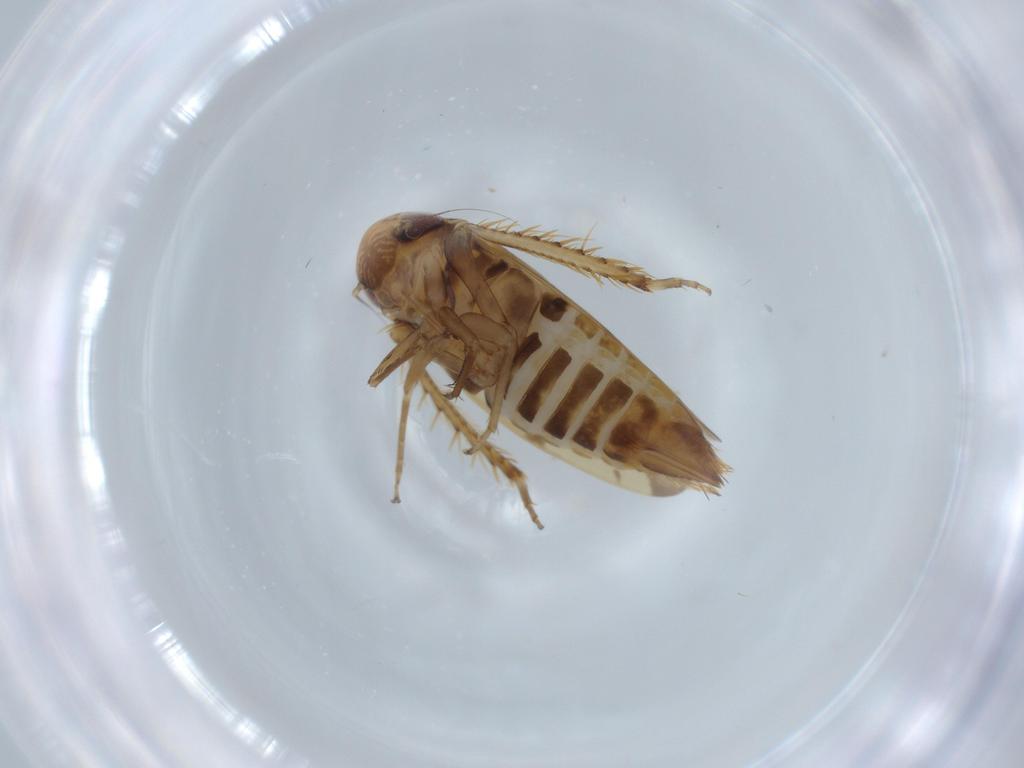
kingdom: Animalia
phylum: Arthropoda
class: Insecta
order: Hemiptera
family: Cicadellidae
